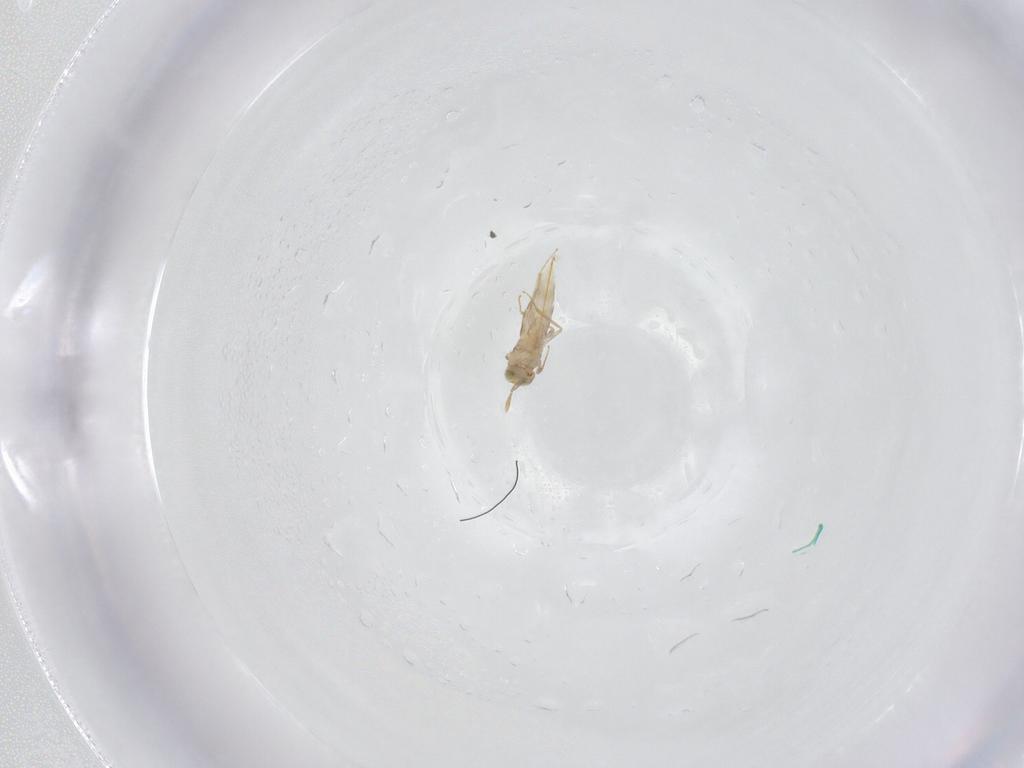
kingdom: Animalia
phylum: Arthropoda
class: Insecta
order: Hymenoptera
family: Aphelinidae
